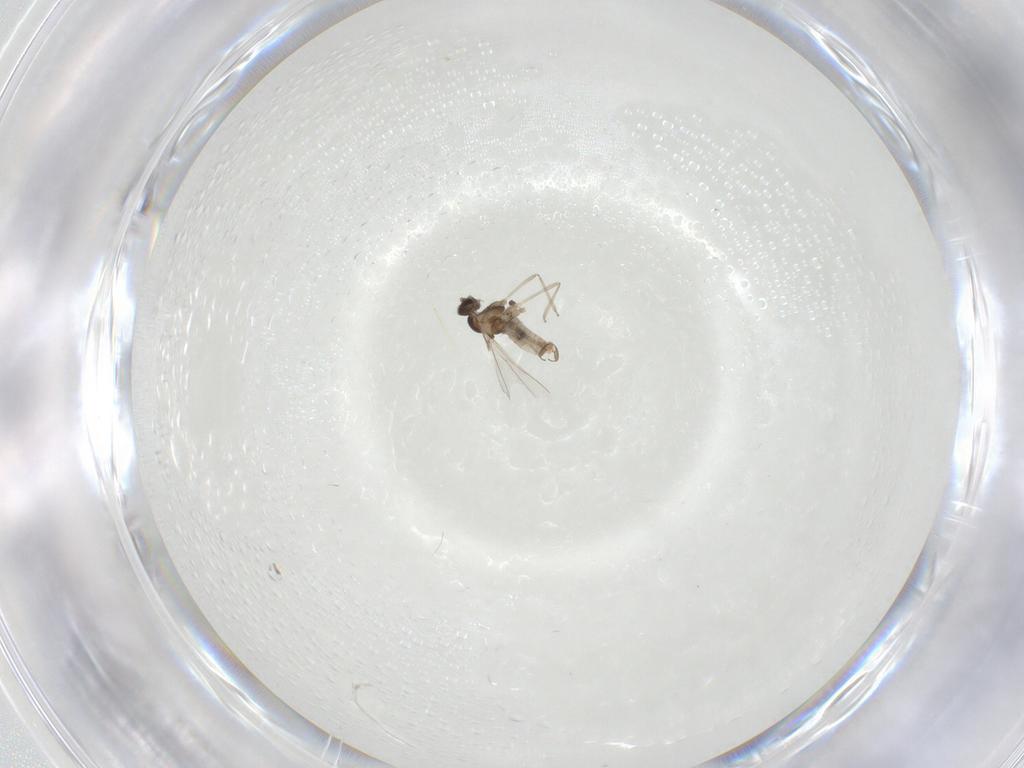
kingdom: Animalia
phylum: Arthropoda
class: Insecta
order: Diptera
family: Cecidomyiidae
